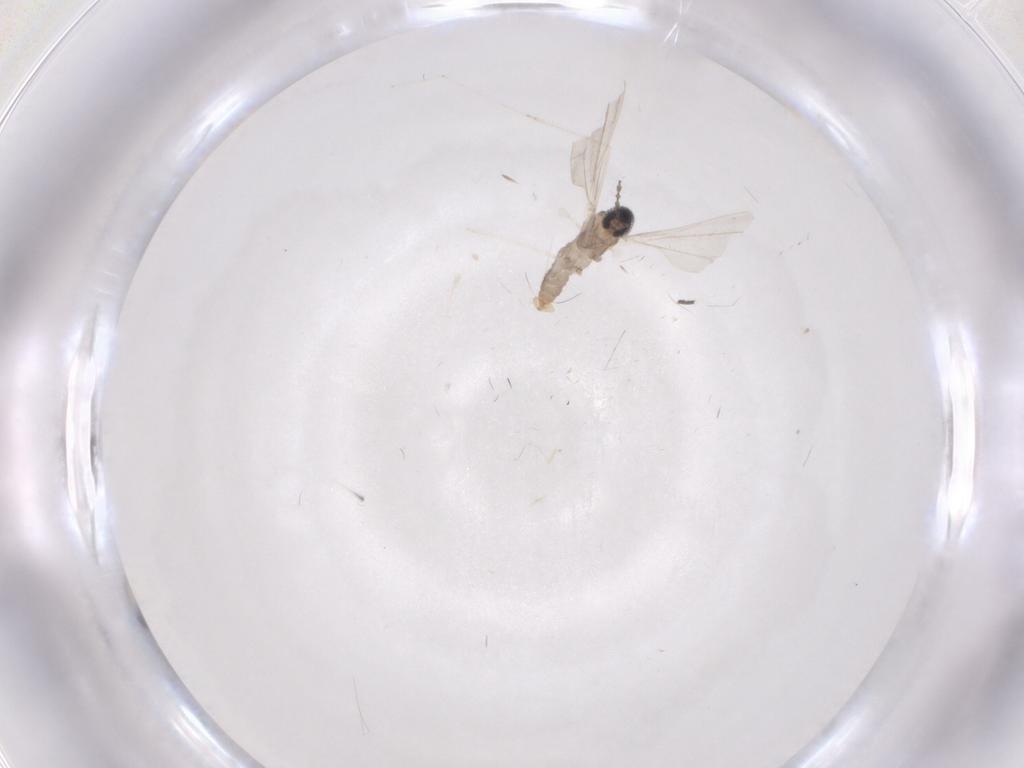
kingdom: Animalia
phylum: Arthropoda
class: Insecta
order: Diptera
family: Sciaridae
